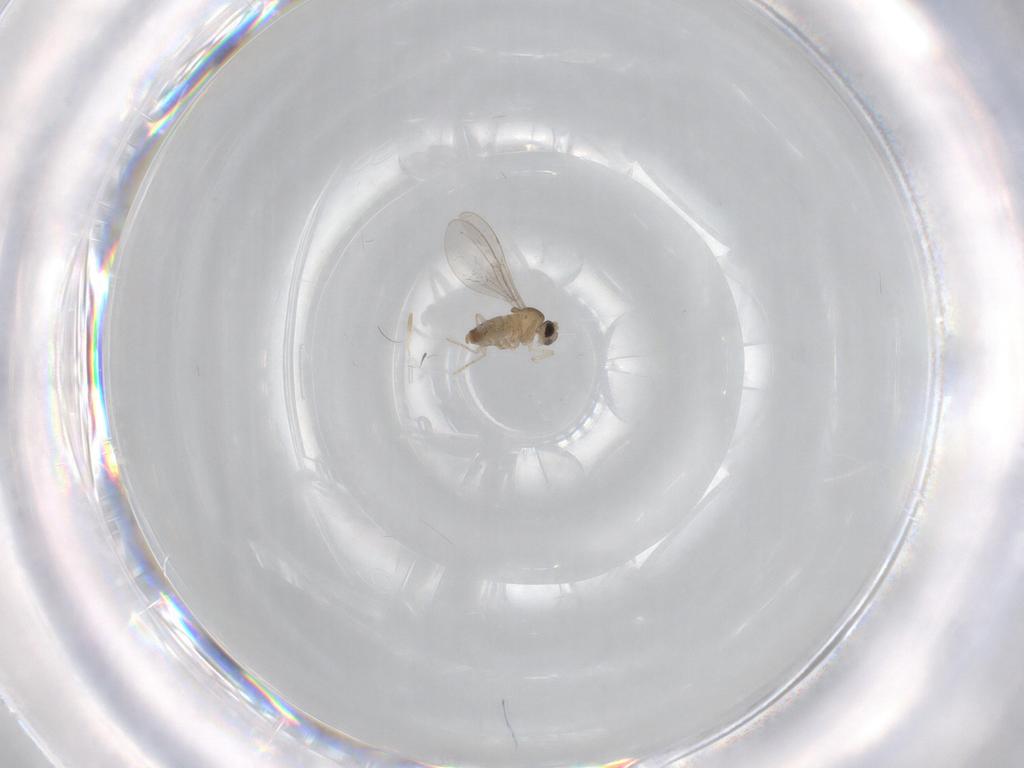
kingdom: Animalia
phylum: Arthropoda
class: Insecta
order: Diptera
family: Cecidomyiidae
